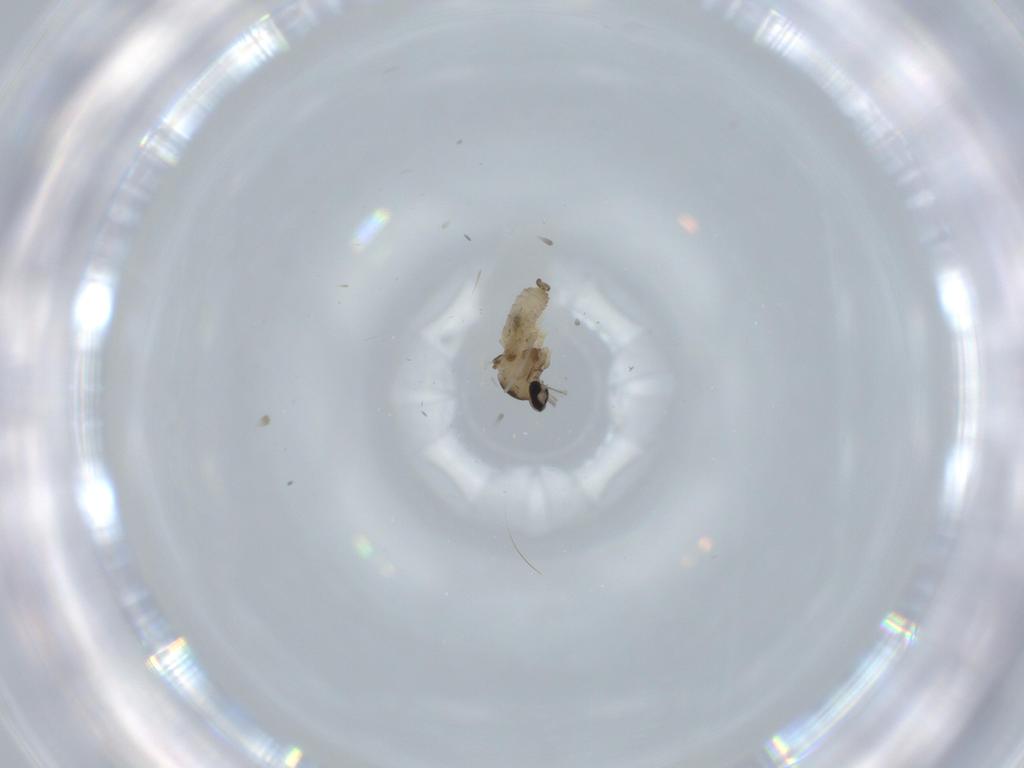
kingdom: Animalia
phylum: Arthropoda
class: Insecta
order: Diptera
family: Cecidomyiidae
